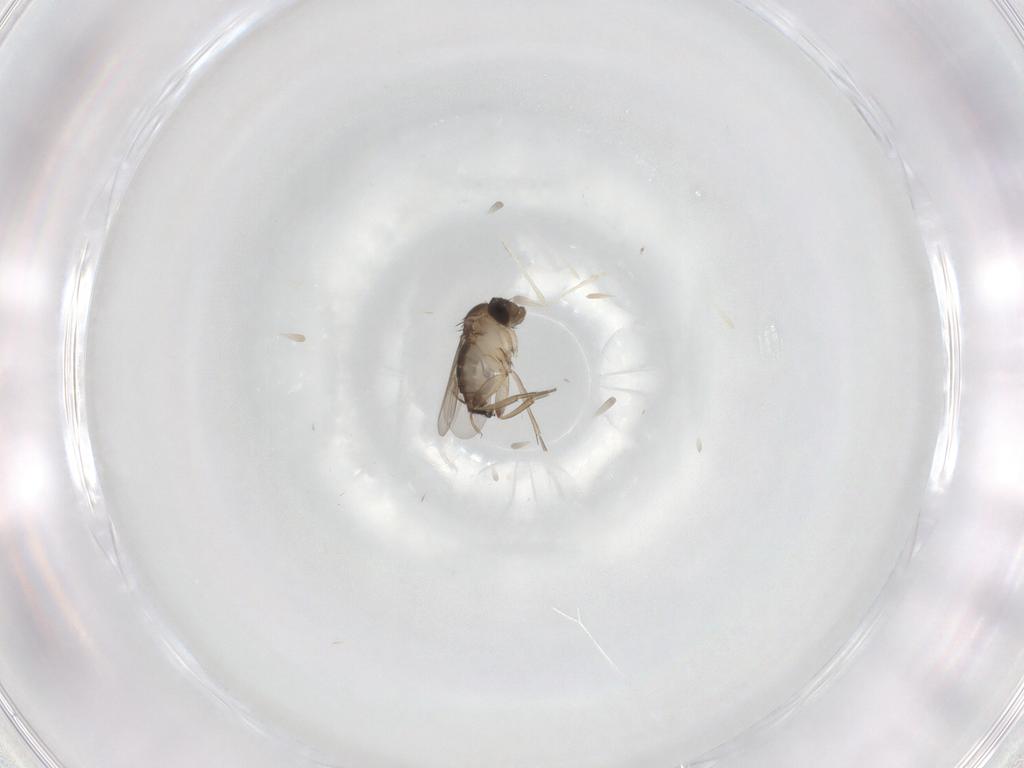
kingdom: Animalia
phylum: Arthropoda
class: Insecta
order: Diptera
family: Phoridae
